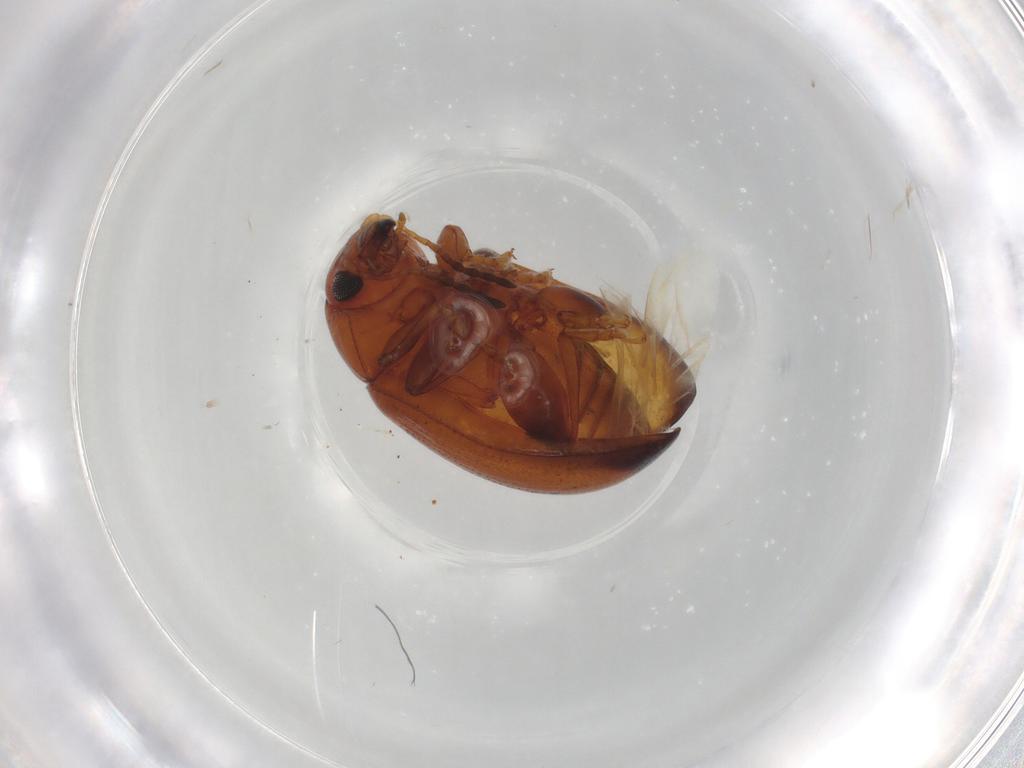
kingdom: Animalia
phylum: Arthropoda
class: Insecta
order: Coleoptera
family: Chrysomelidae
